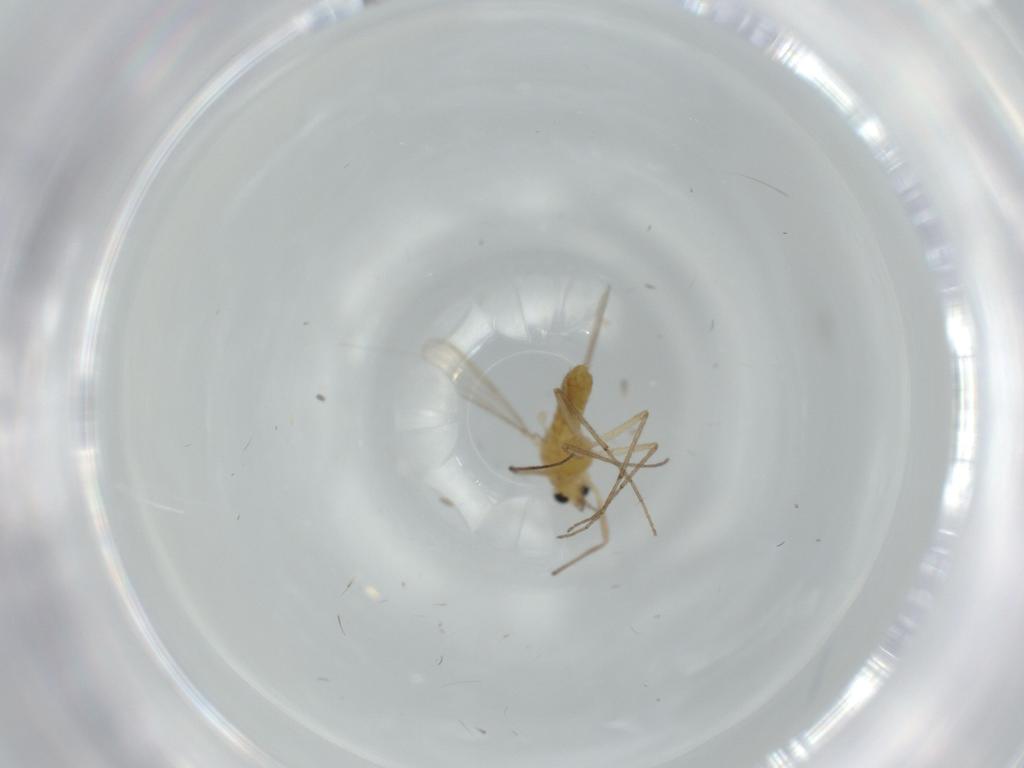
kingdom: Animalia
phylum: Arthropoda
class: Insecta
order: Diptera
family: Chironomidae
